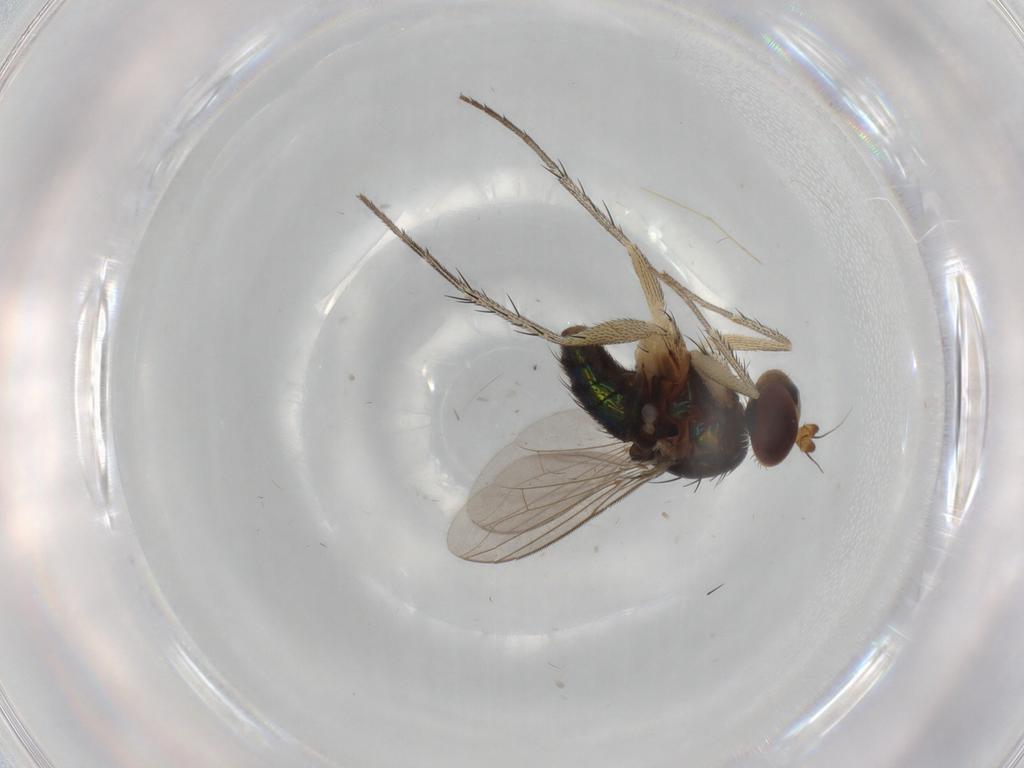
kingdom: Animalia
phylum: Arthropoda
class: Insecta
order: Diptera
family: Dolichopodidae
